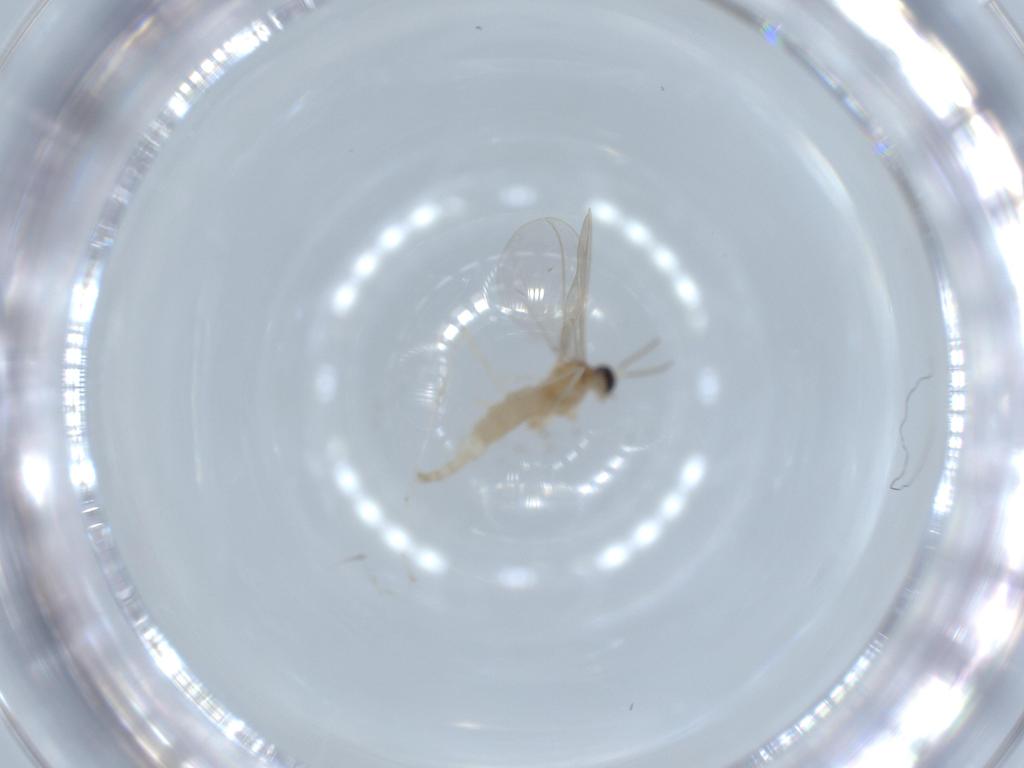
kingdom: Animalia
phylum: Arthropoda
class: Insecta
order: Diptera
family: Cecidomyiidae
